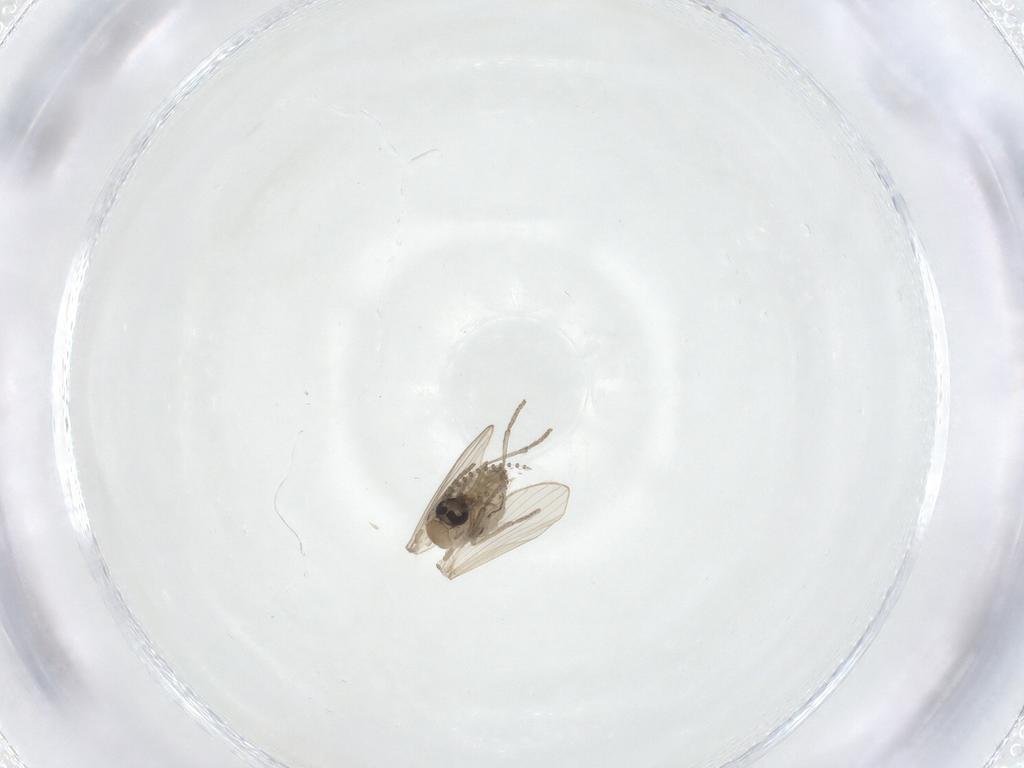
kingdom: Animalia
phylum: Arthropoda
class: Insecta
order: Diptera
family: Psychodidae
